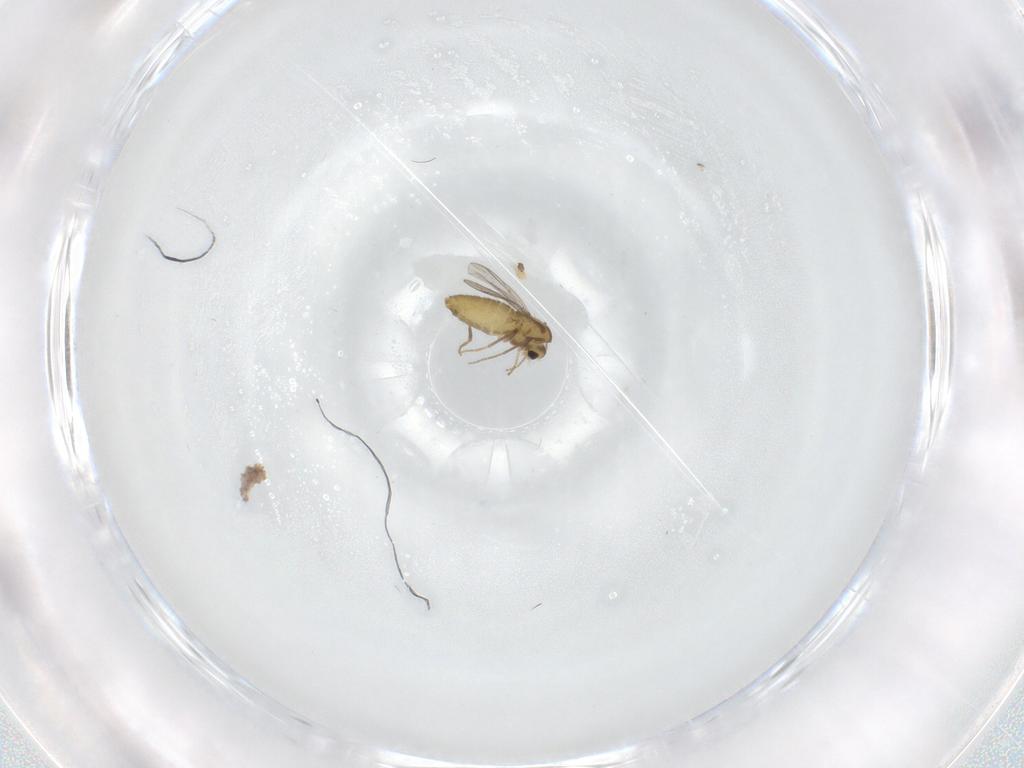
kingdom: Animalia
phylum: Arthropoda
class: Insecta
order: Diptera
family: Chironomidae
